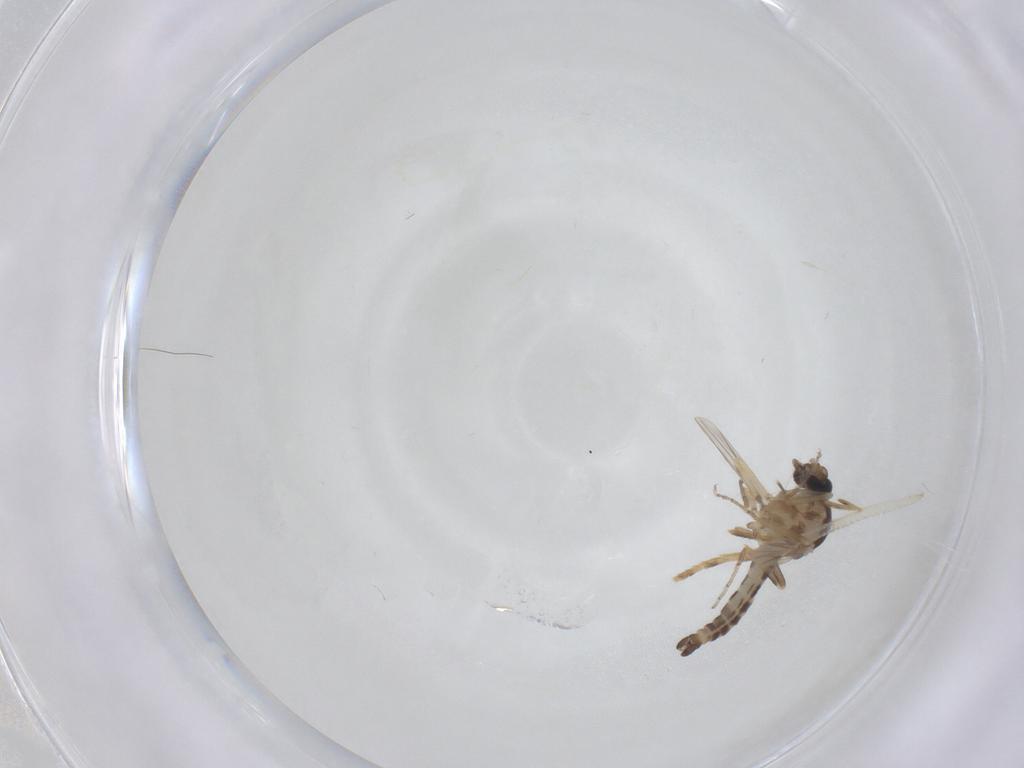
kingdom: Animalia
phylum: Arthropoda
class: Insecta
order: Diptera
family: Ceratopogonidae
